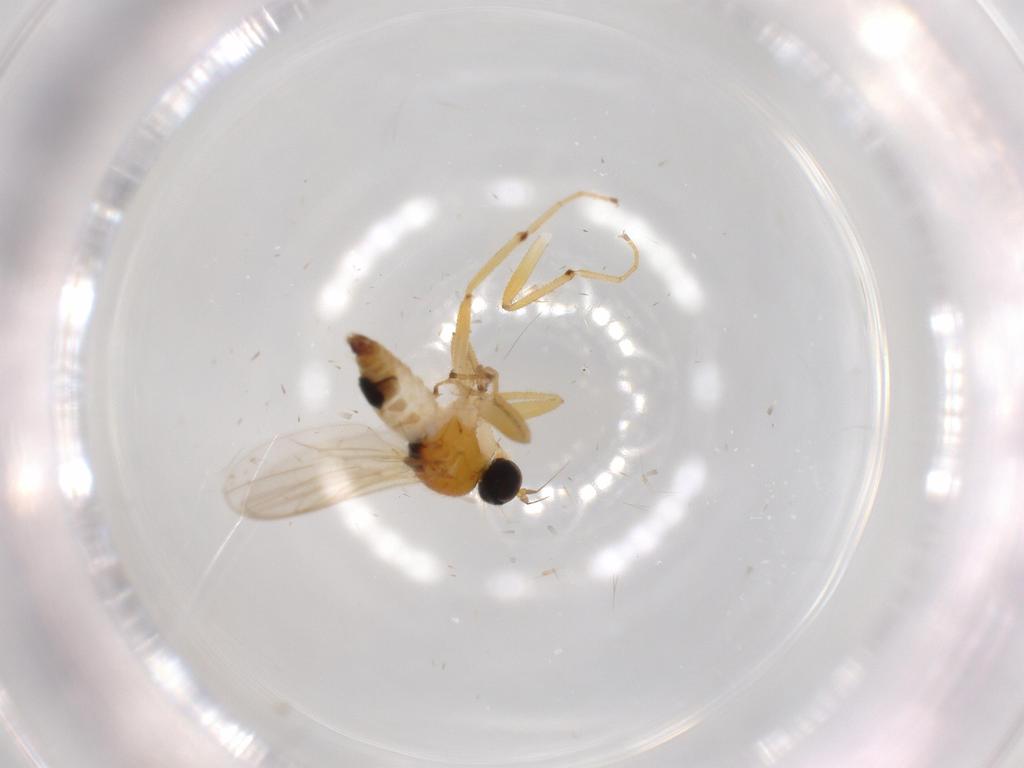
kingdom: Animalia
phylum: Arthropoda
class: Insecta
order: Diptera
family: Hybotidae
